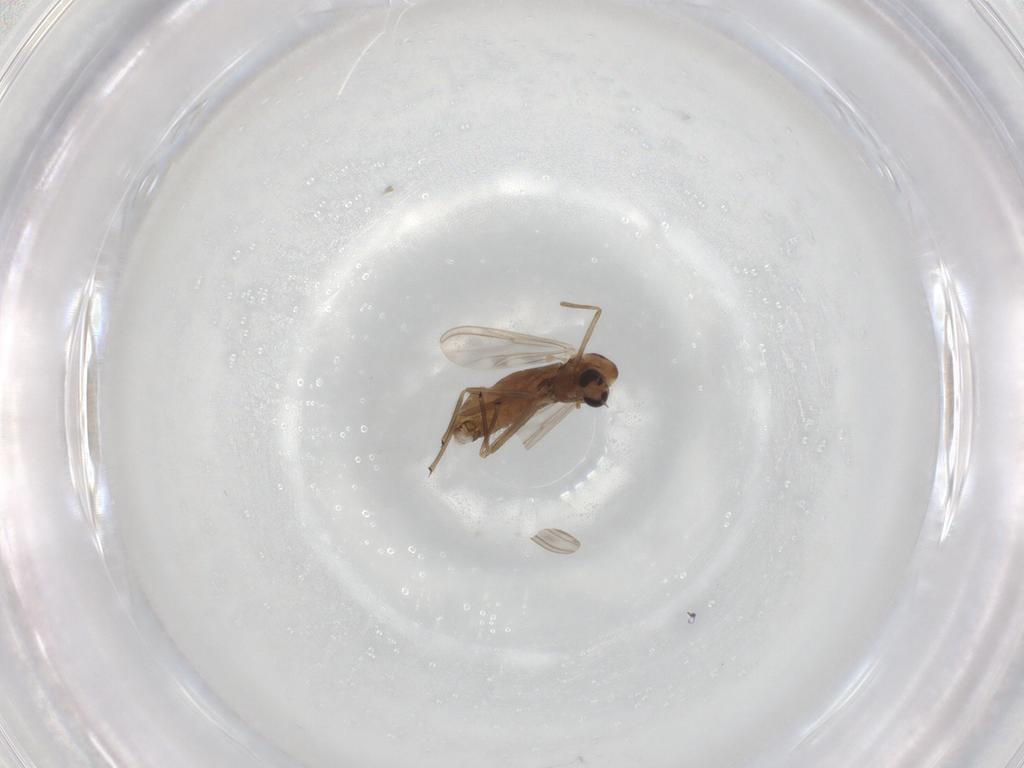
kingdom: Animalia
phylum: Arthropoda
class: Insecta
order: Diptera
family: Chironomidae
